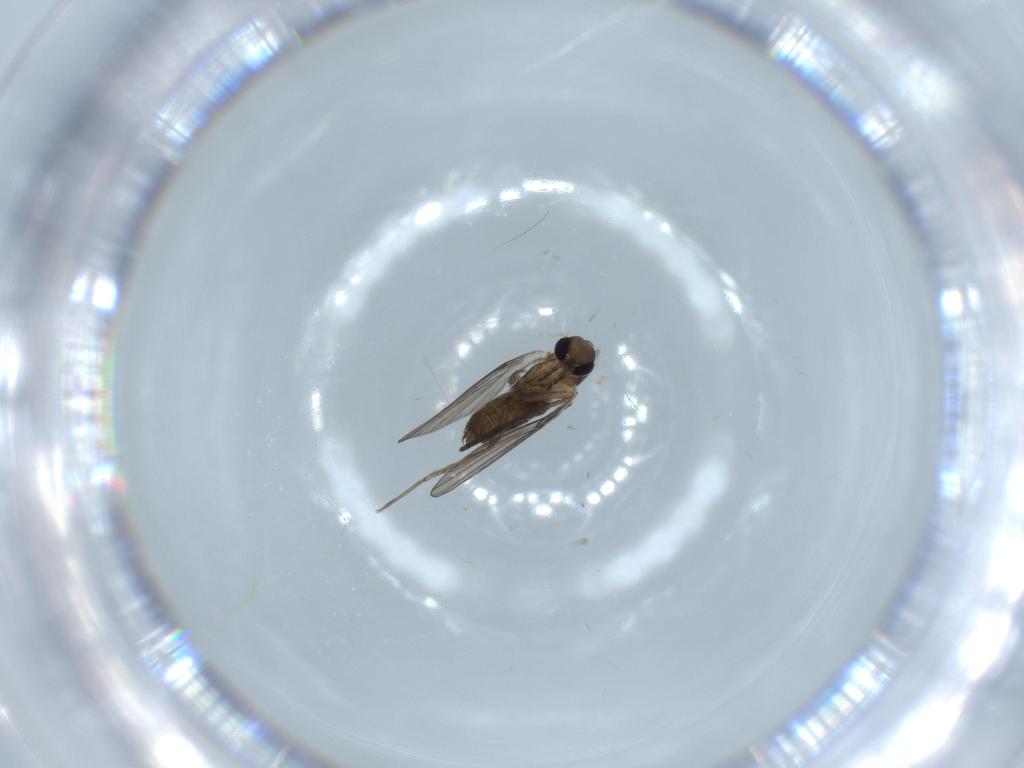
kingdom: Animalia
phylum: Arthropoda
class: Insecta
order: Diptera
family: Psychodidae
